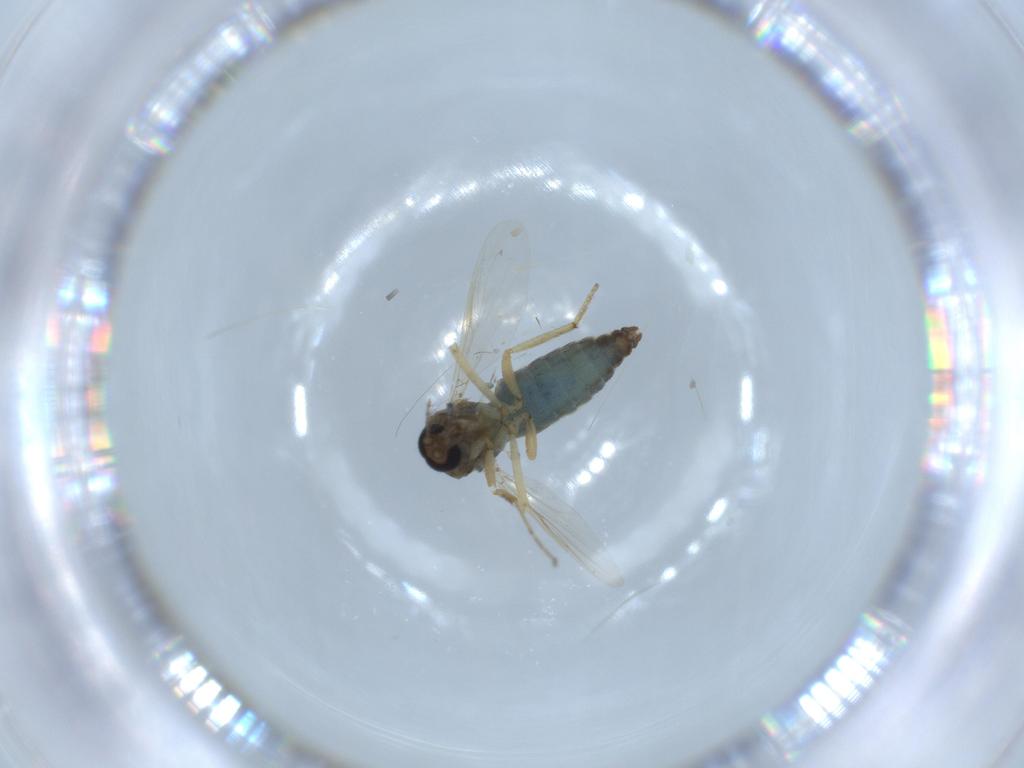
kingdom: Animalia
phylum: Arthropoda
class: Insecta
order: Diptera
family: Ceratopogonidae
